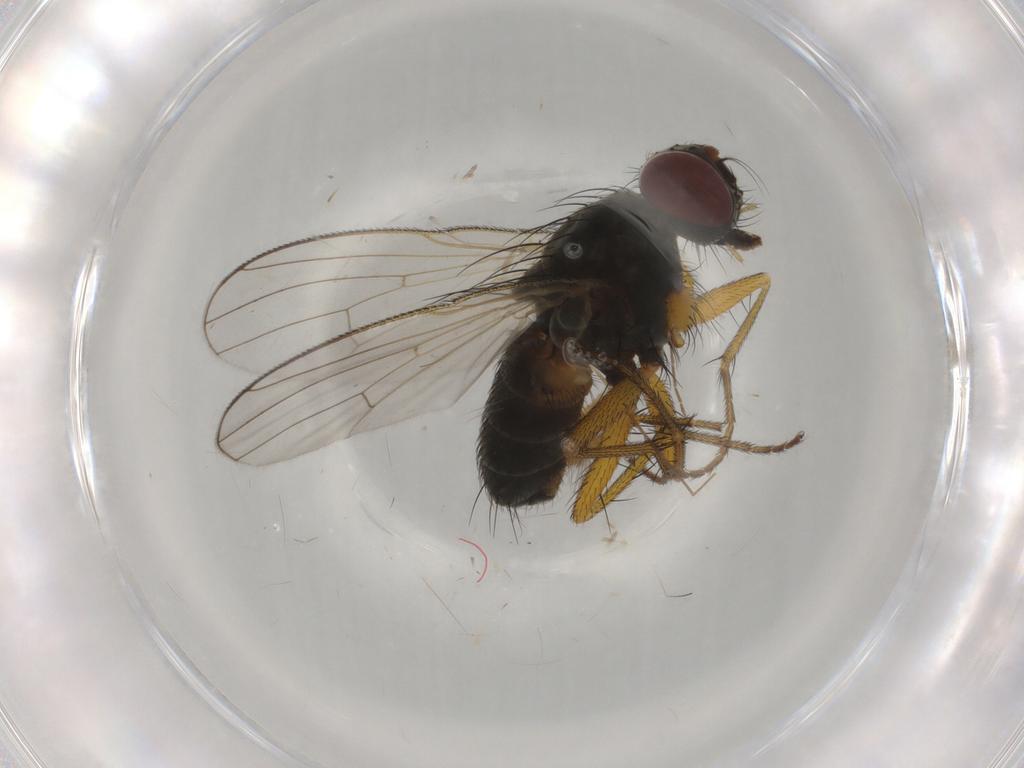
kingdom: Animalia
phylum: Arthropoda
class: Insecta
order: Diptera
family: Muscidae
